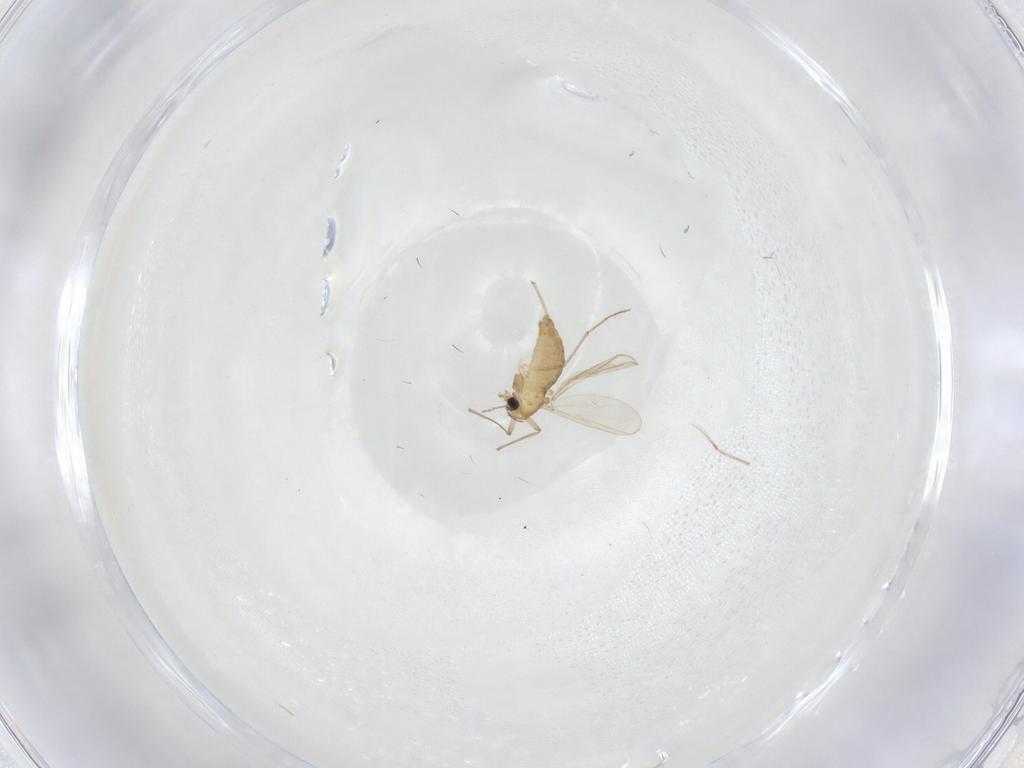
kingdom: Animalia
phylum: Arthropoda
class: Insecta
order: Diptera
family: Chironomidae
